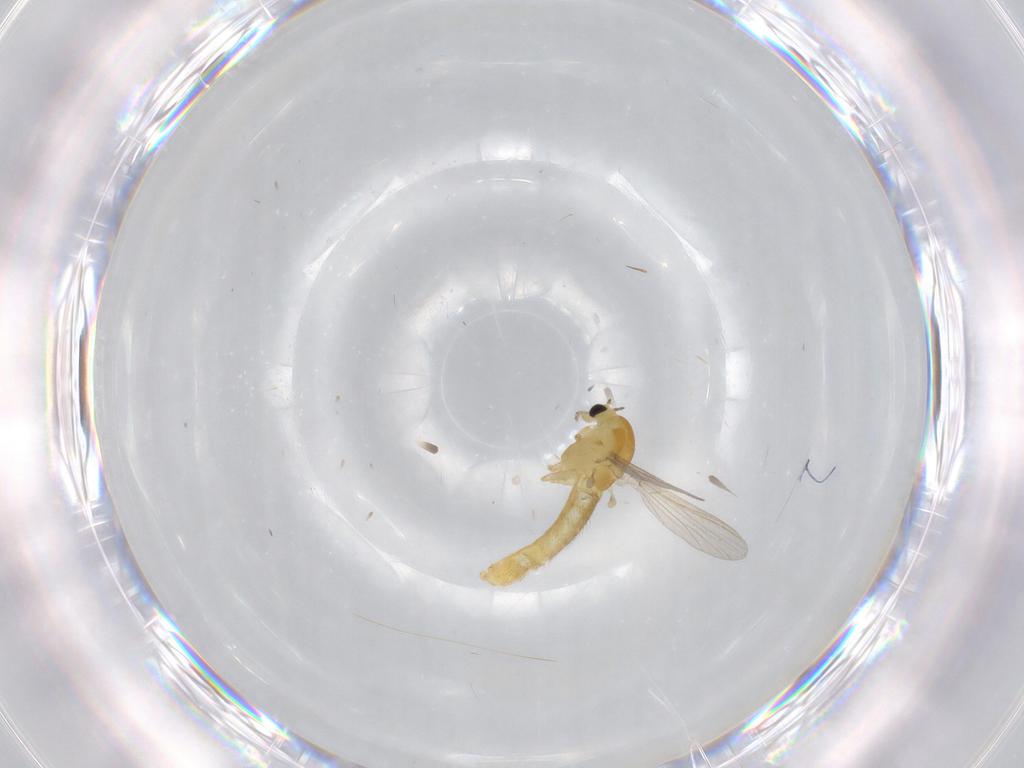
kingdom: Animalia
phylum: Arthropoda
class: Insecta
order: Diptera
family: Chironomidae
